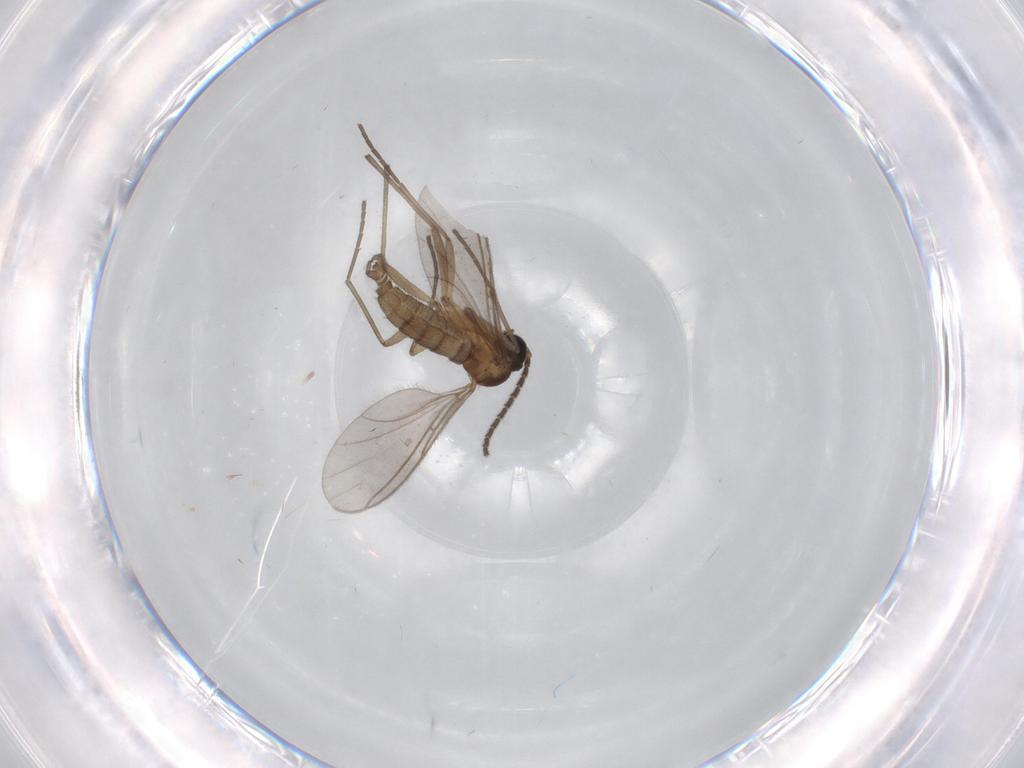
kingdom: Animalia
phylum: Arthropoda
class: Insecta
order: Diptera
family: Sciaridae
